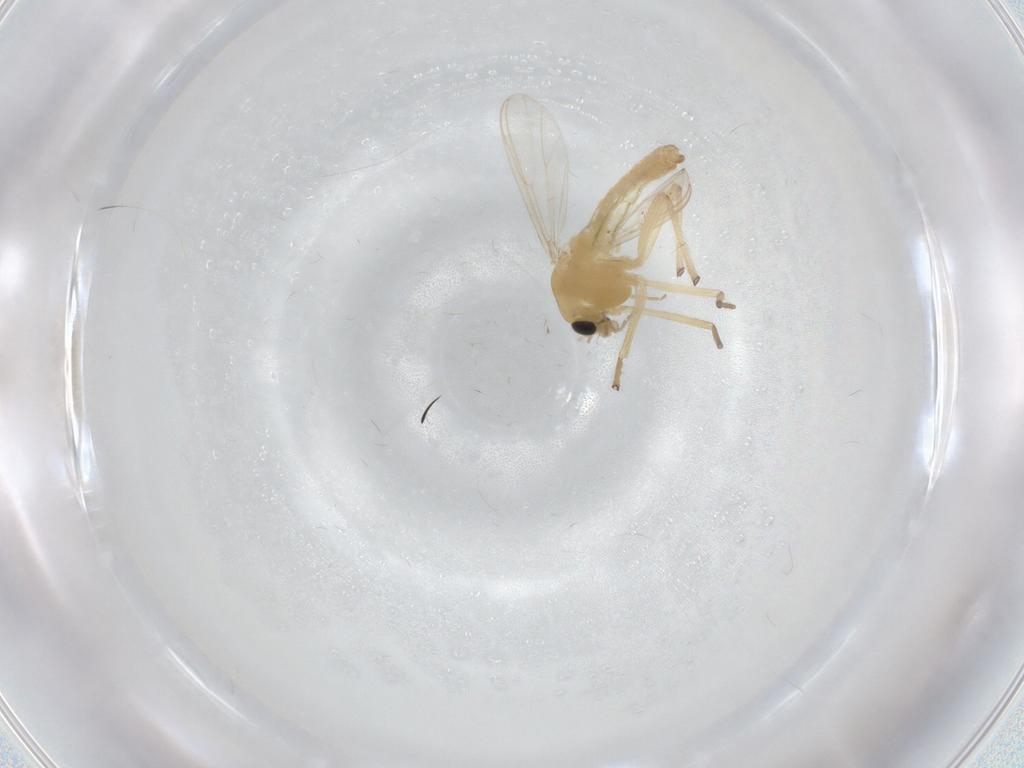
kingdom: Animalia
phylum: Arthropoda
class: Insecta
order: Diptera
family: Chironomidae
